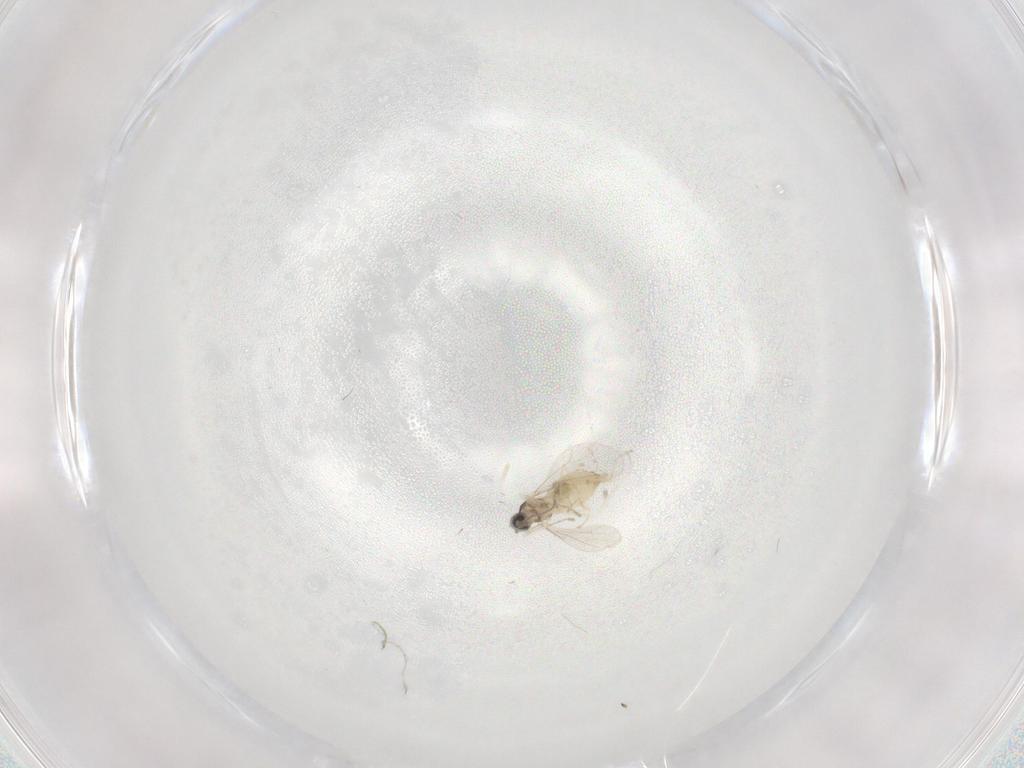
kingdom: Animalia
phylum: Arthropoda
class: Insecta
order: Diptera
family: Cecidomyiidae
